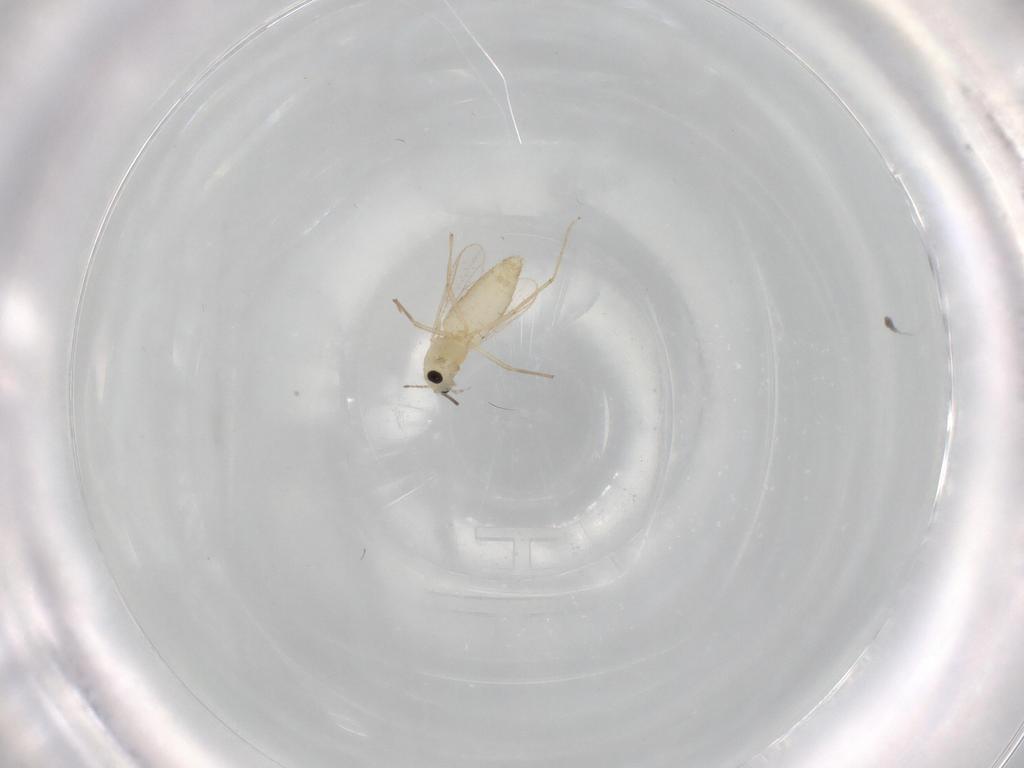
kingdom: Animalia
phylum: Arthropoda
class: Insecta
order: Diptera
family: Chironomidae
